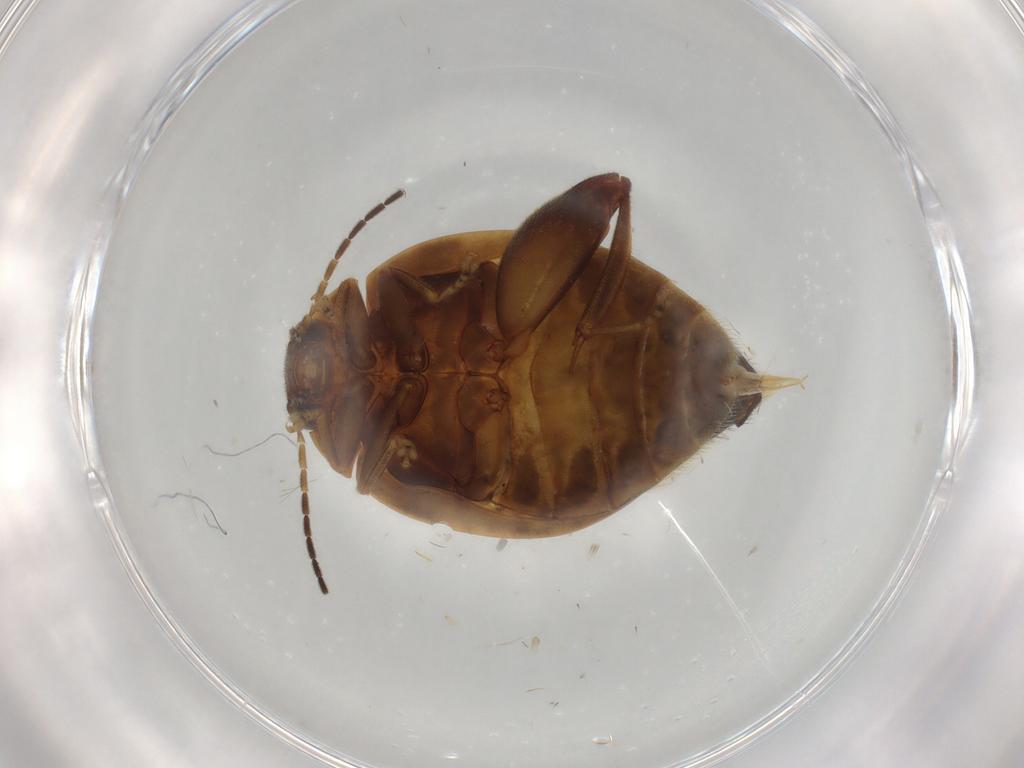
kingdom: Animalia
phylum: Arthropoda
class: Insecta
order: Coleoptera
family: Scirtidae
